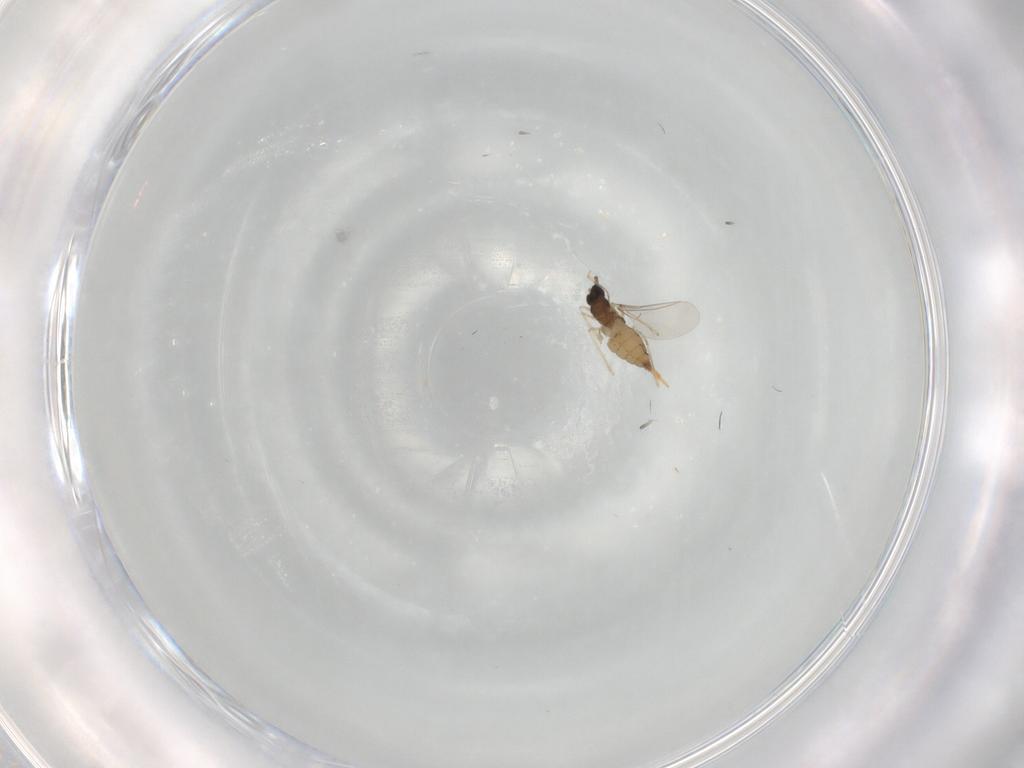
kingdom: Animalia
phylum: Arthropoda
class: Insecta
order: Diptera
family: Cecidomyiidae
